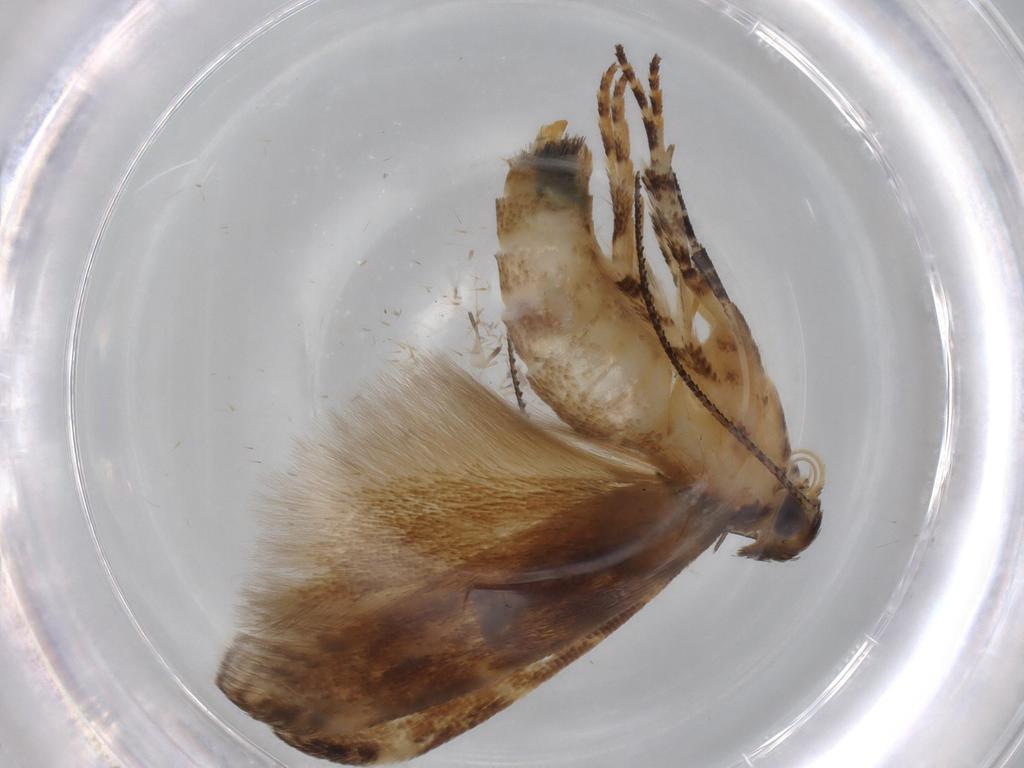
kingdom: Animalia
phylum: Arthropoda
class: Insecta
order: Lepidoptera
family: Gelechiidae
